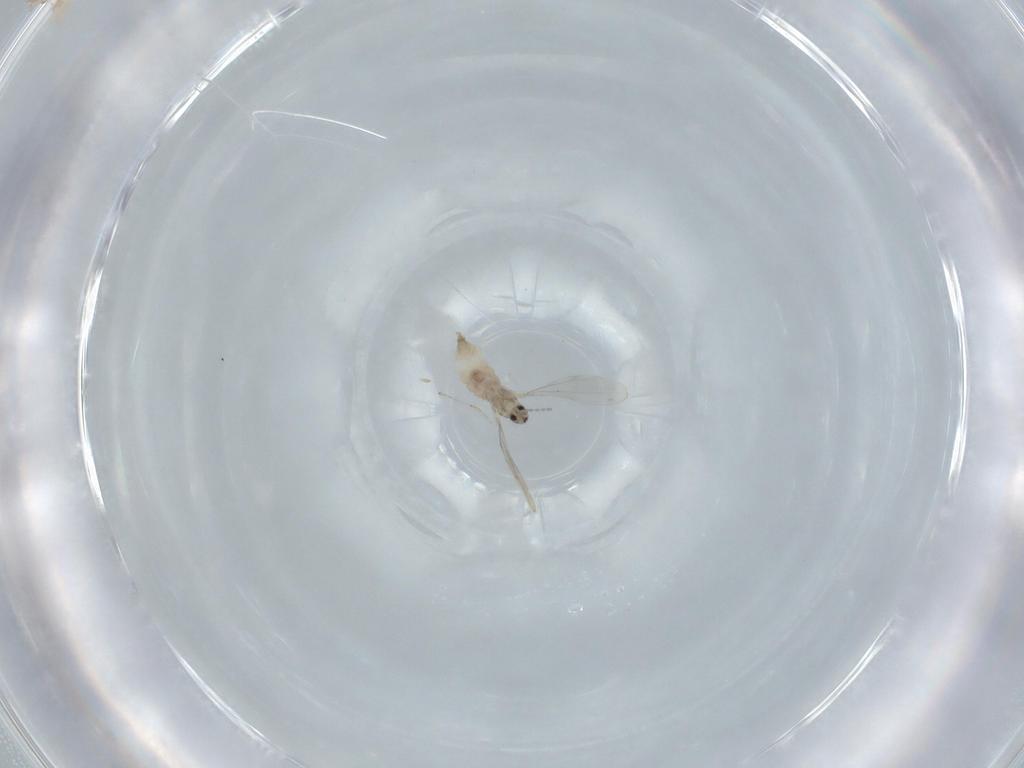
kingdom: Animalia
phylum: Arthropoda
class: Insecta
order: Diptera
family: Cecidomyiidae
